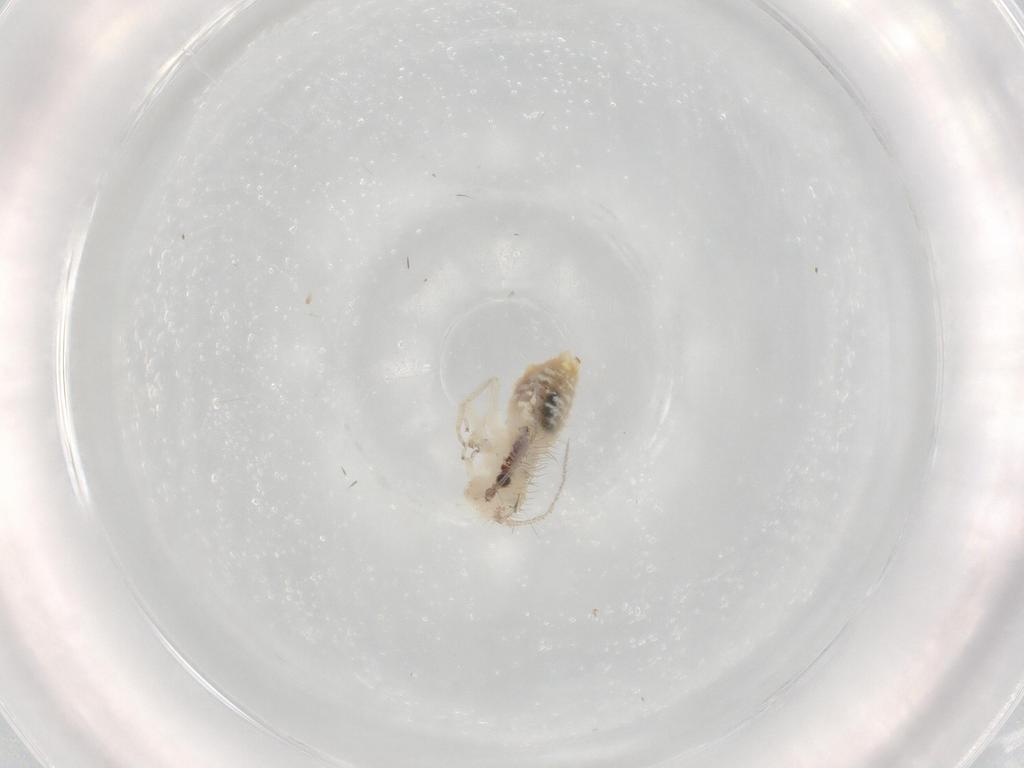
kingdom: Animalia
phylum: Arthropoda
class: Insecta
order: Psocodea
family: Pseudocaeciliidae
